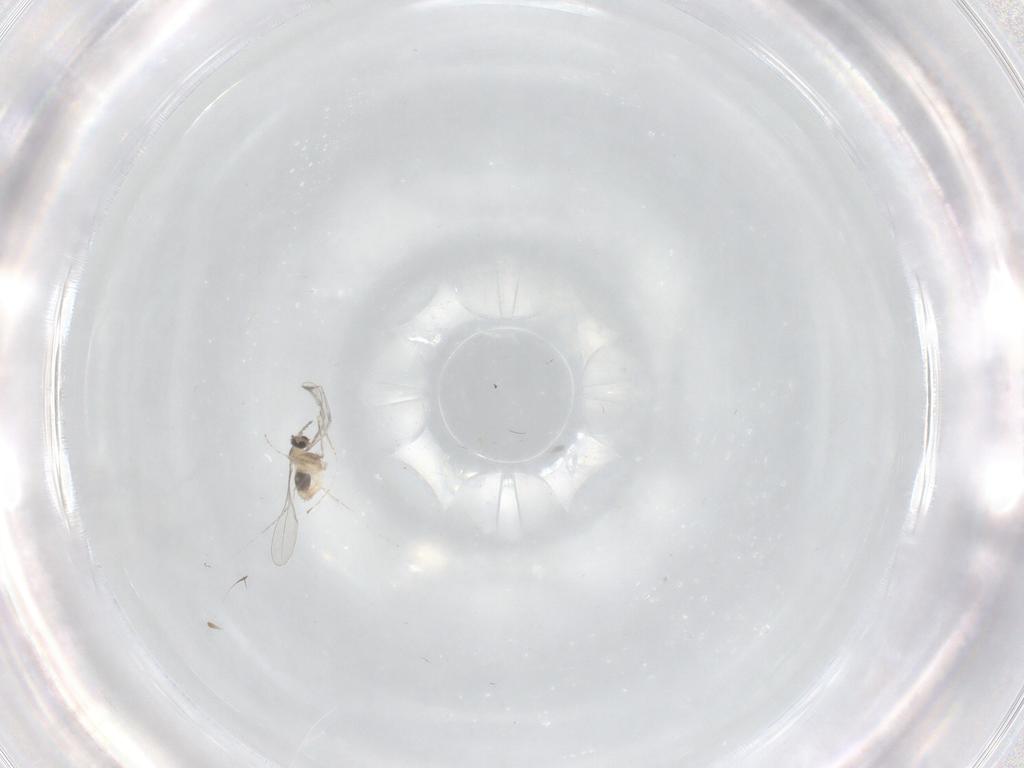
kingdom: Animalia
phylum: Arthropoda
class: Insecta
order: Diptera
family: Cecidomyiidae
